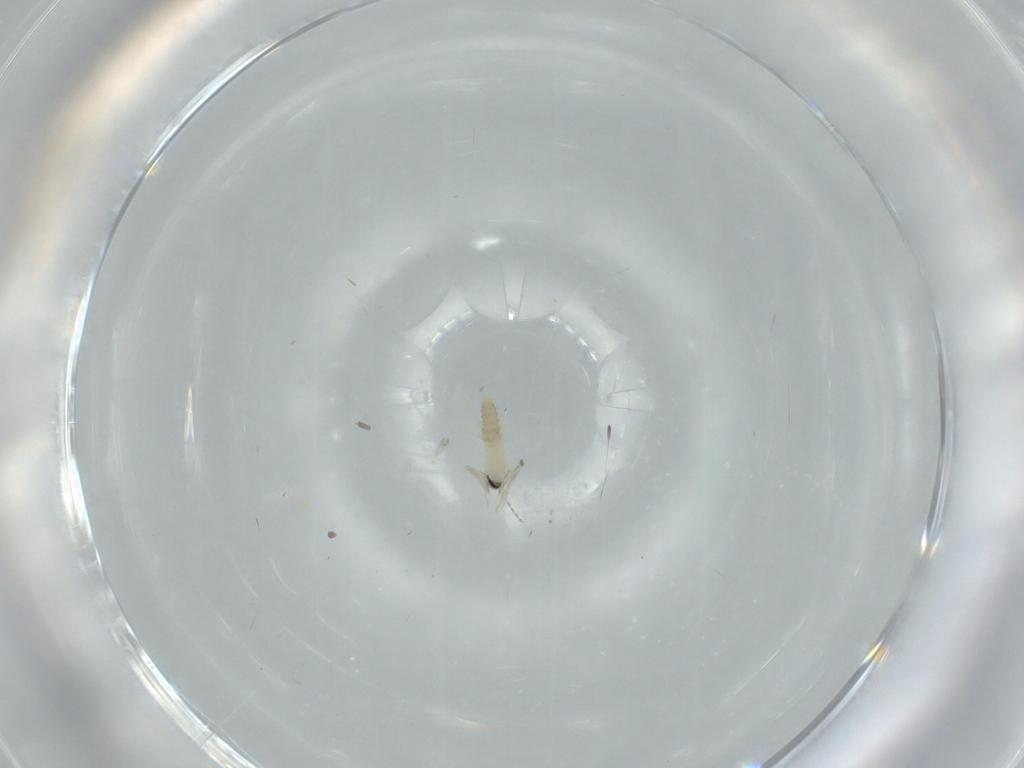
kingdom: Animalia
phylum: Arthropoda
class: Insecta
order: Diptera
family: Cecidomyiidae
